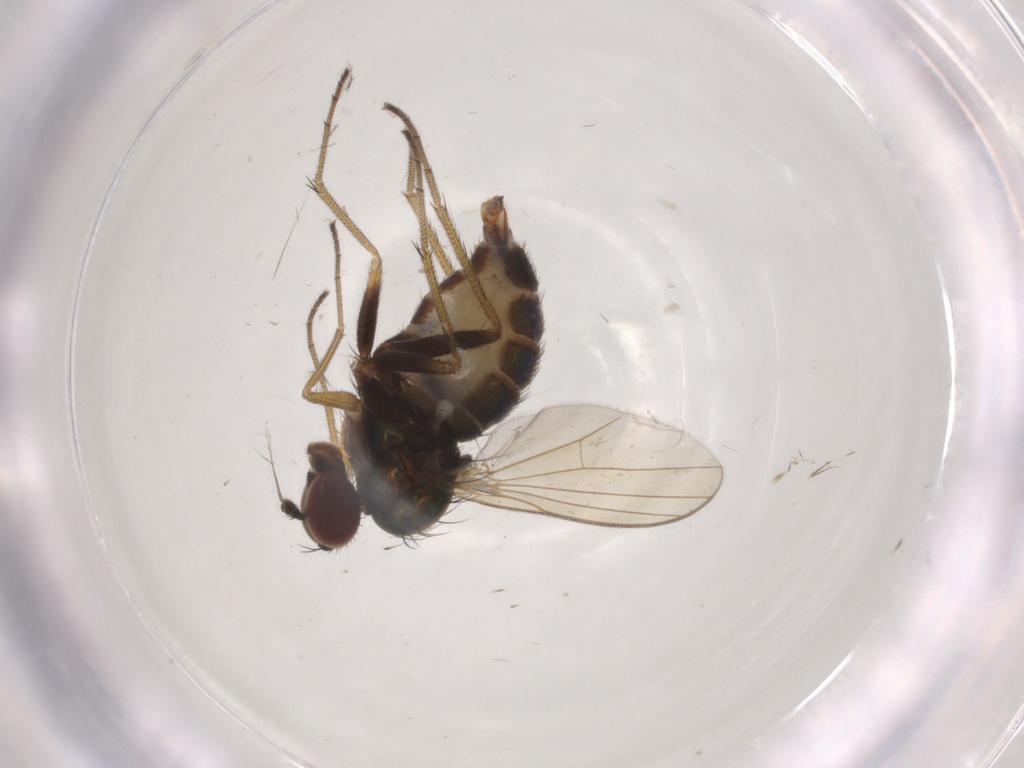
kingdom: Animalia
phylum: Arthropoda
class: Insecta
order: Diptera
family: Dolichopodidae
